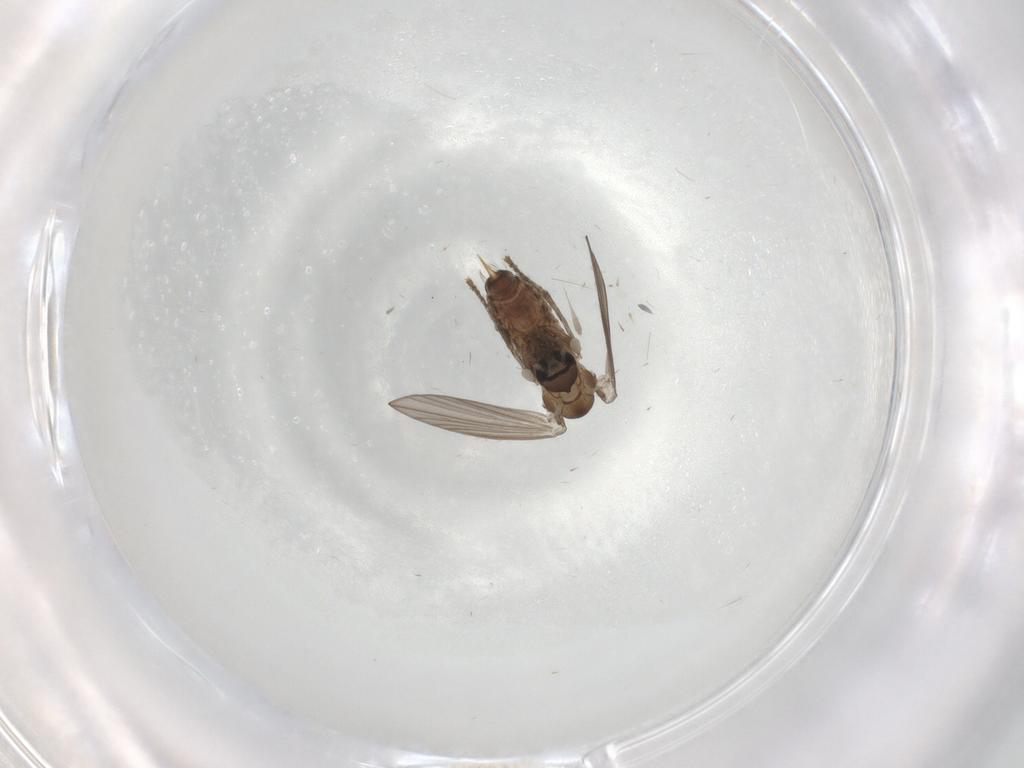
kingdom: Animalia
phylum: Arthropoda
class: Insecta
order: Diptera
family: Psychodidae
